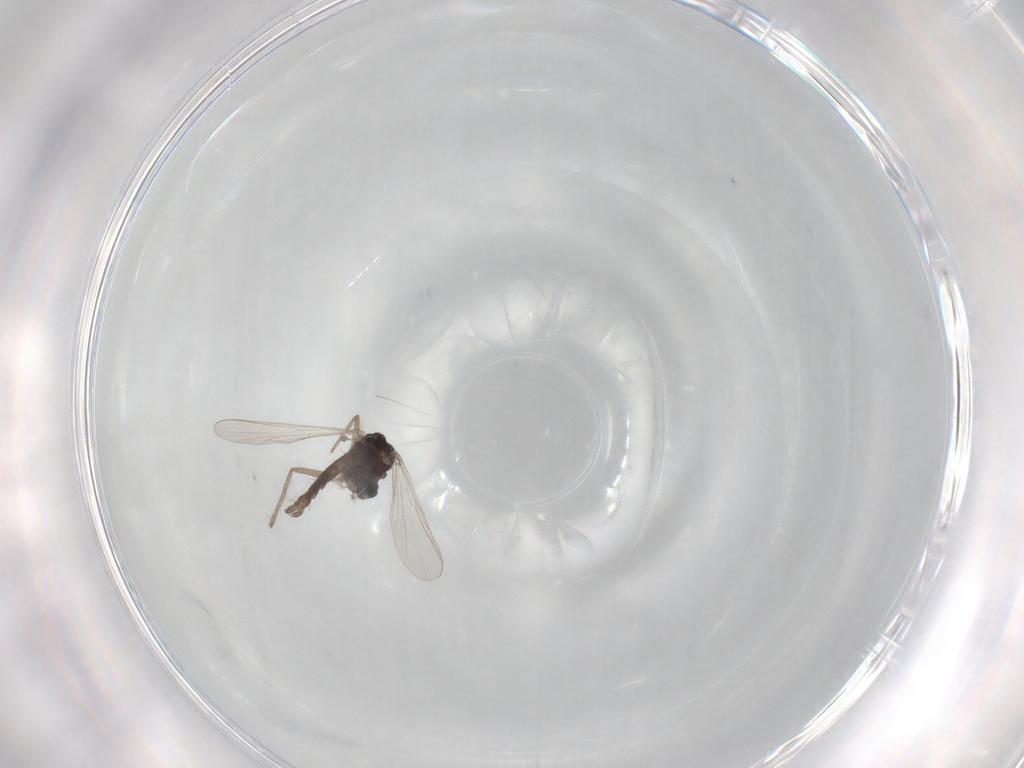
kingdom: Animalia
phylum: Arthropoda
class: Insecta
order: Diptera
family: Chironomidae
